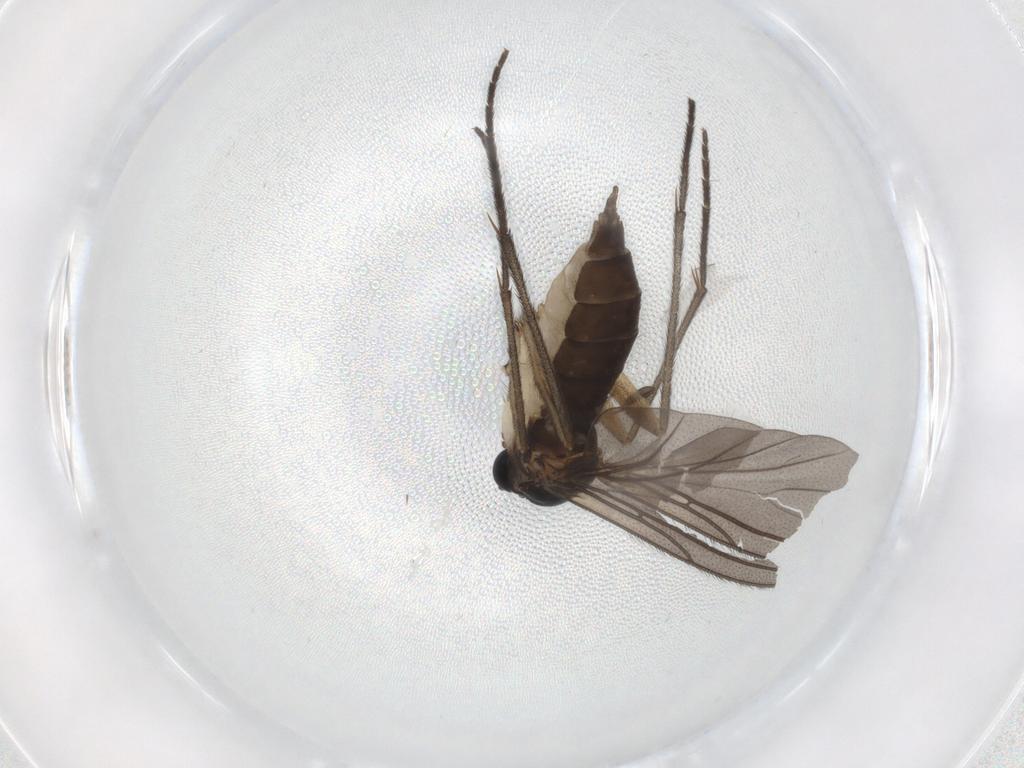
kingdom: Animalia
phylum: Arthropoda
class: Insecta
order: Diptera
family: Sciaridae
